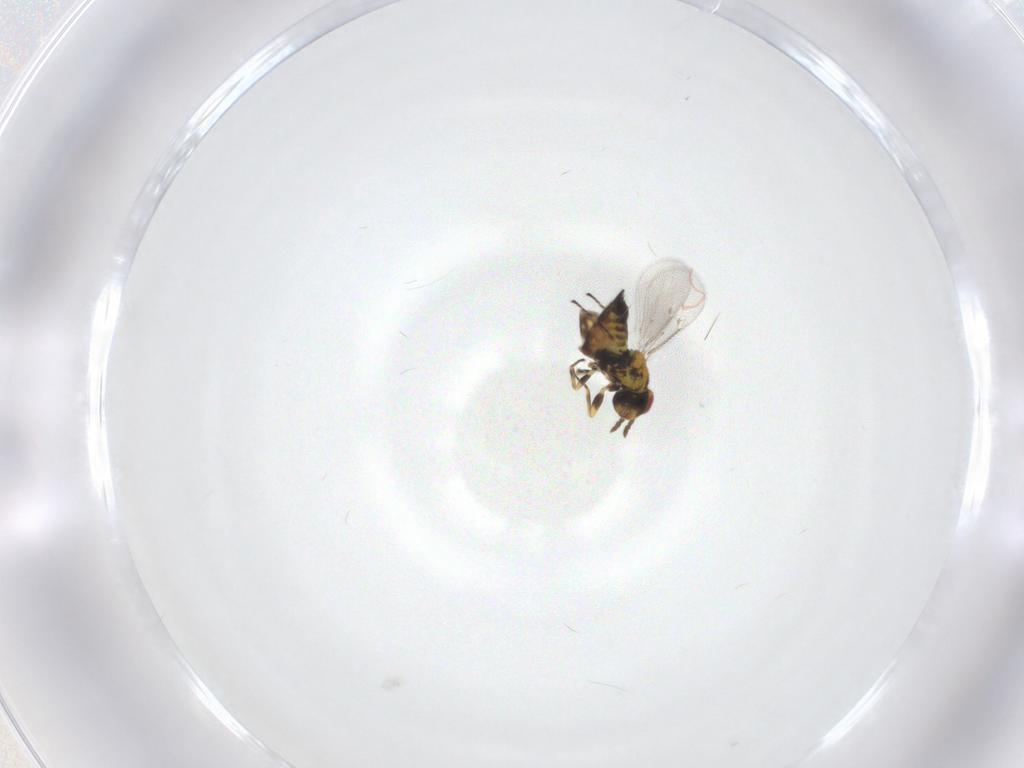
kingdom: Animalia
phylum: Arthropoda
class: Insecta
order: Hymenoptera
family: Eulophidae
